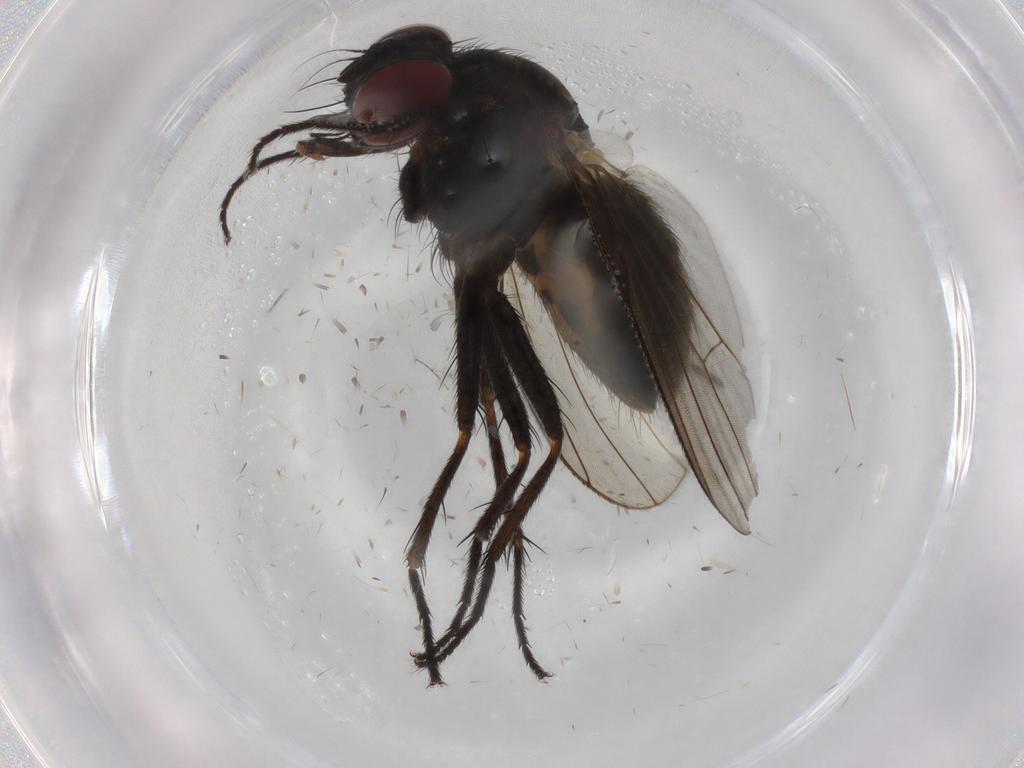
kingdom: Animalia
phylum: Arthropoda
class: Insecta
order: Diptera
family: Muscidae
